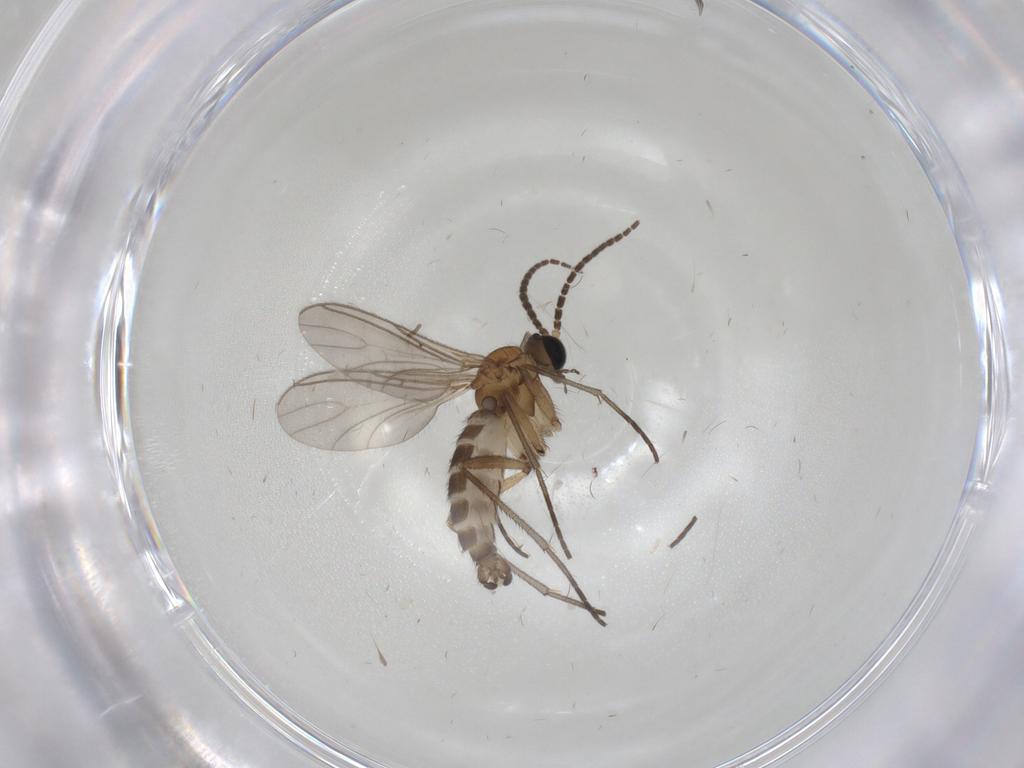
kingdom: Animalia
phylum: Arthropoda
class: Insecta
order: Diptera
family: Sciaridae
